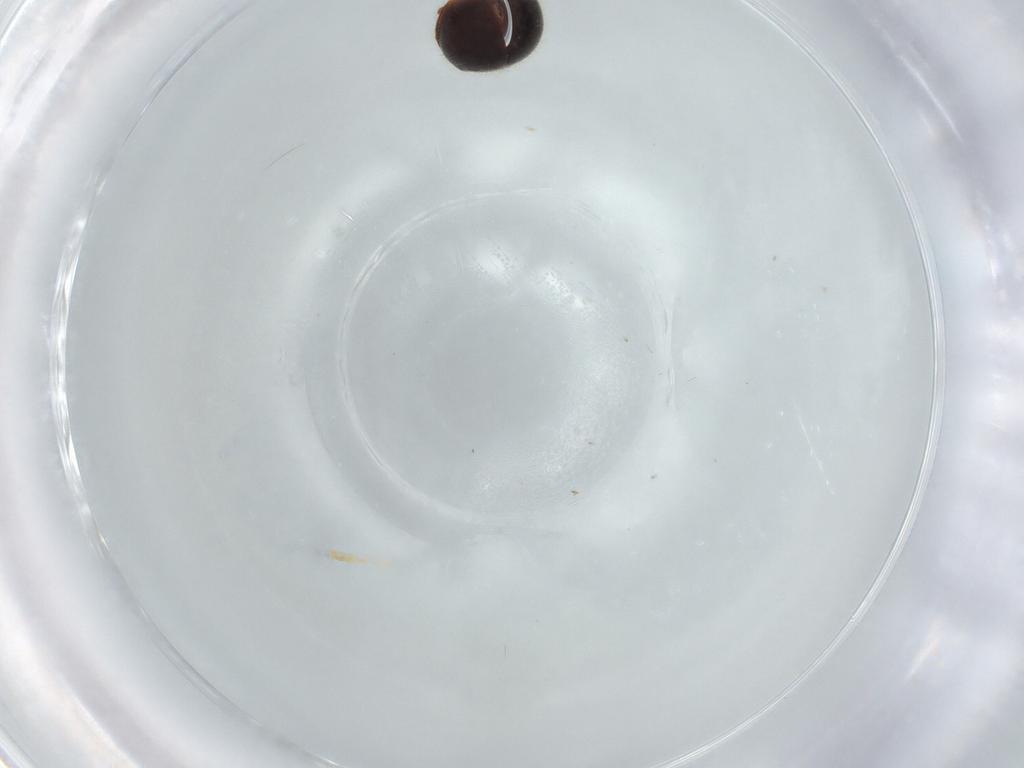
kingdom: Animalia
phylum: Arthropoda
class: Insecta
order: Coleoptera
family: Coccinellidae
